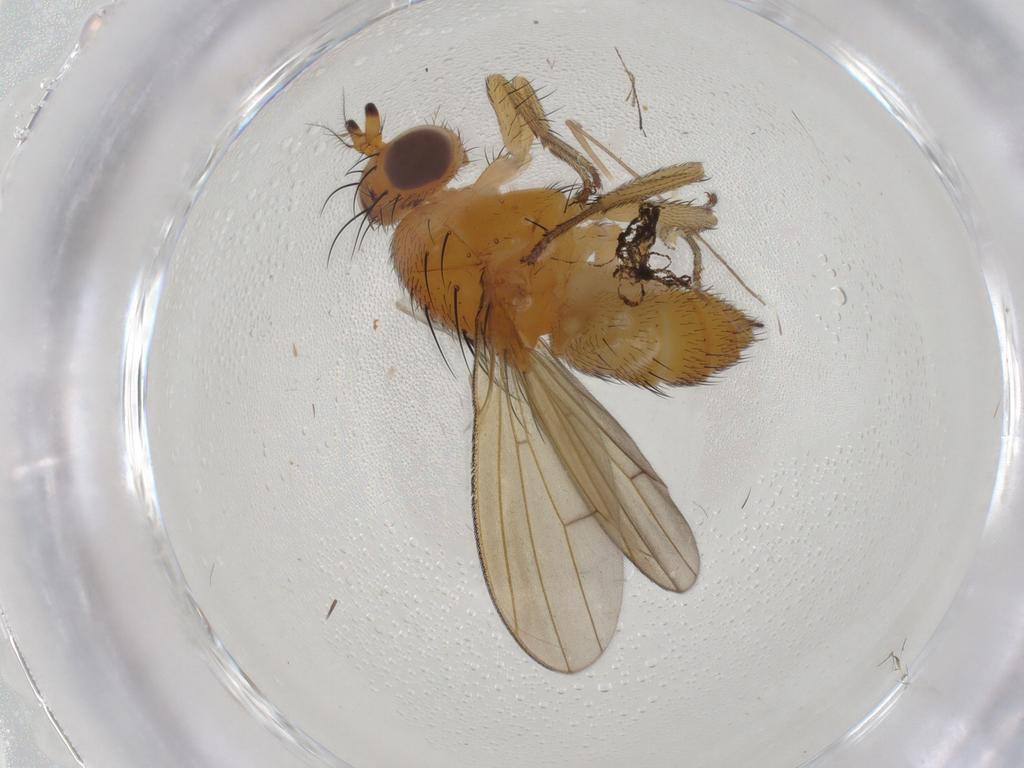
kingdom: Animalia
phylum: Arthropoda
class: Insecta
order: Diptera
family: Lauxaniidae
